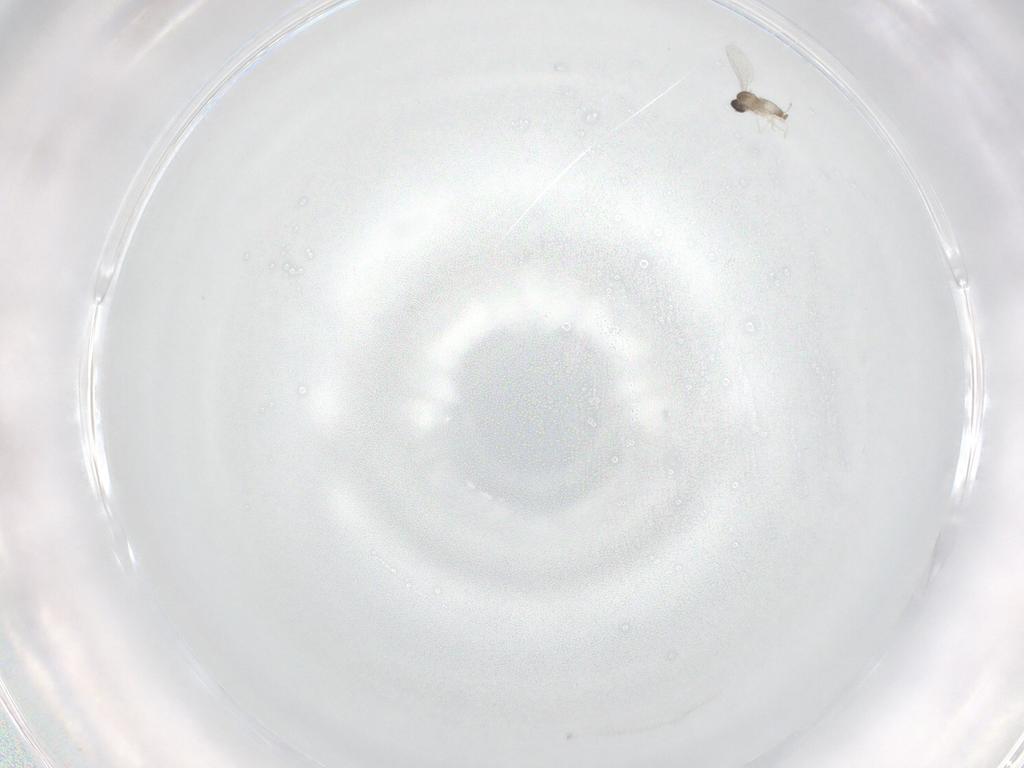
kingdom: Animalia
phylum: Arthropoda
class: Insecta
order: Diptera
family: Cecidomyiidae
